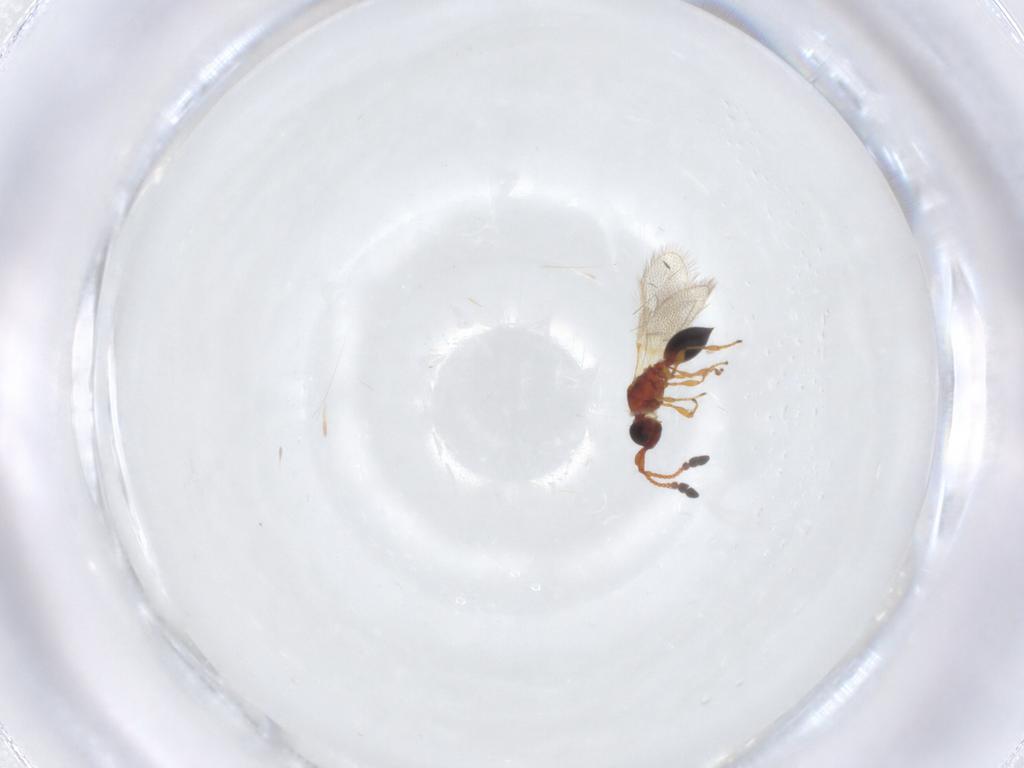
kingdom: Animalia
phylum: Arthropoda
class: Insecta
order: Hymenoptera
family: Diapriidae
